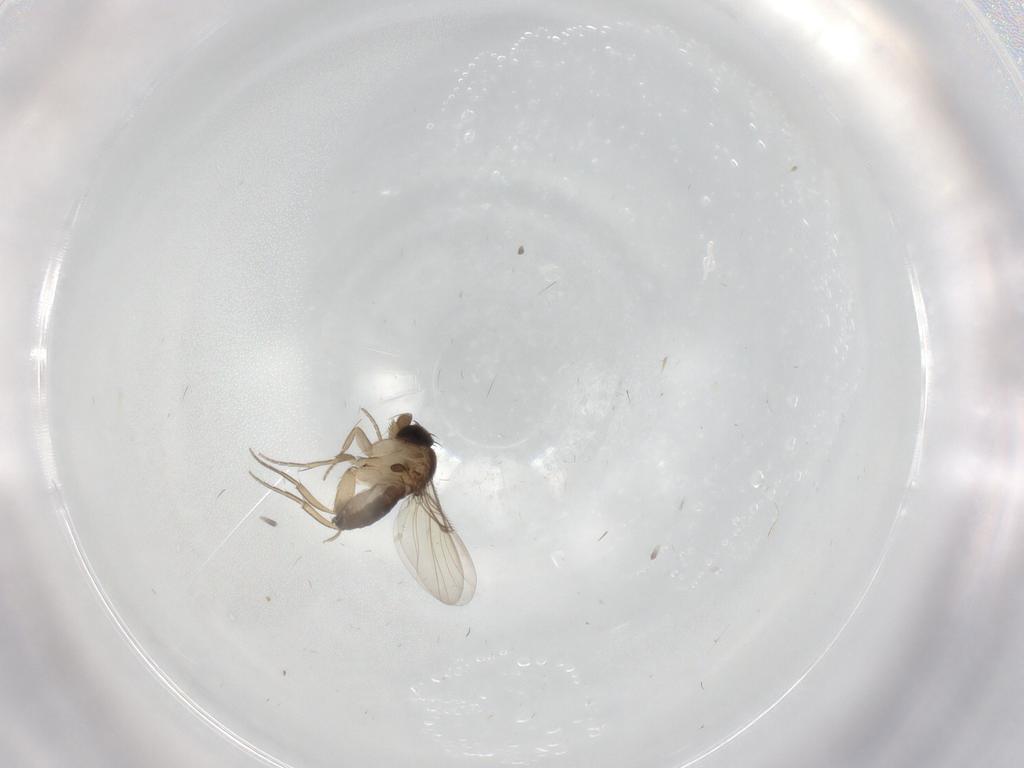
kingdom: Animalia
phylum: Arthropoda
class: Insecta
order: Diptera
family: Phoridae
